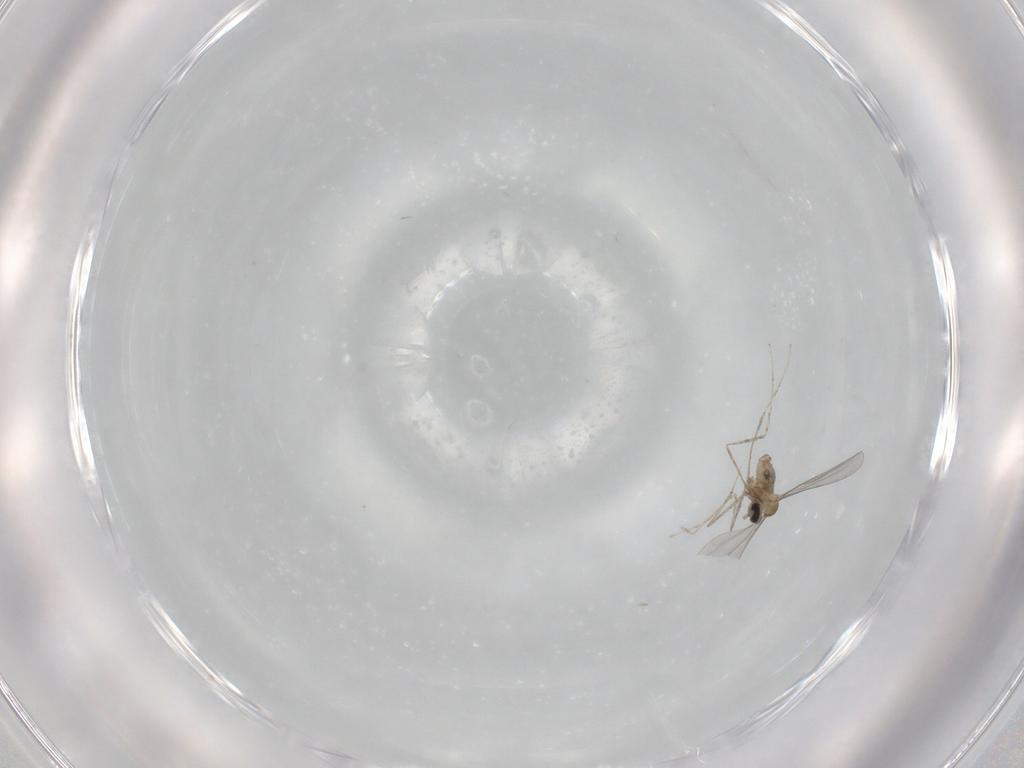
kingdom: Animalia
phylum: Arthropoda
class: Insecta
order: Diptera
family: Cecidomyiidae
